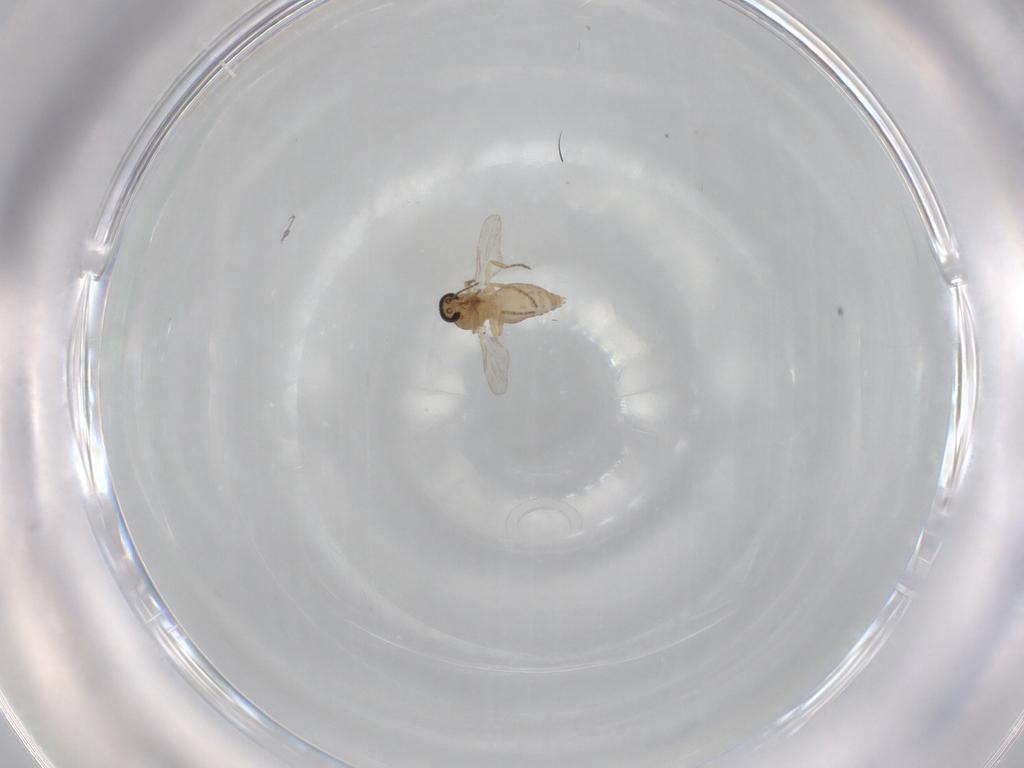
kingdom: Animalia
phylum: Arthropoda
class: Insecta
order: Diptera
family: Ceratopogonidae
